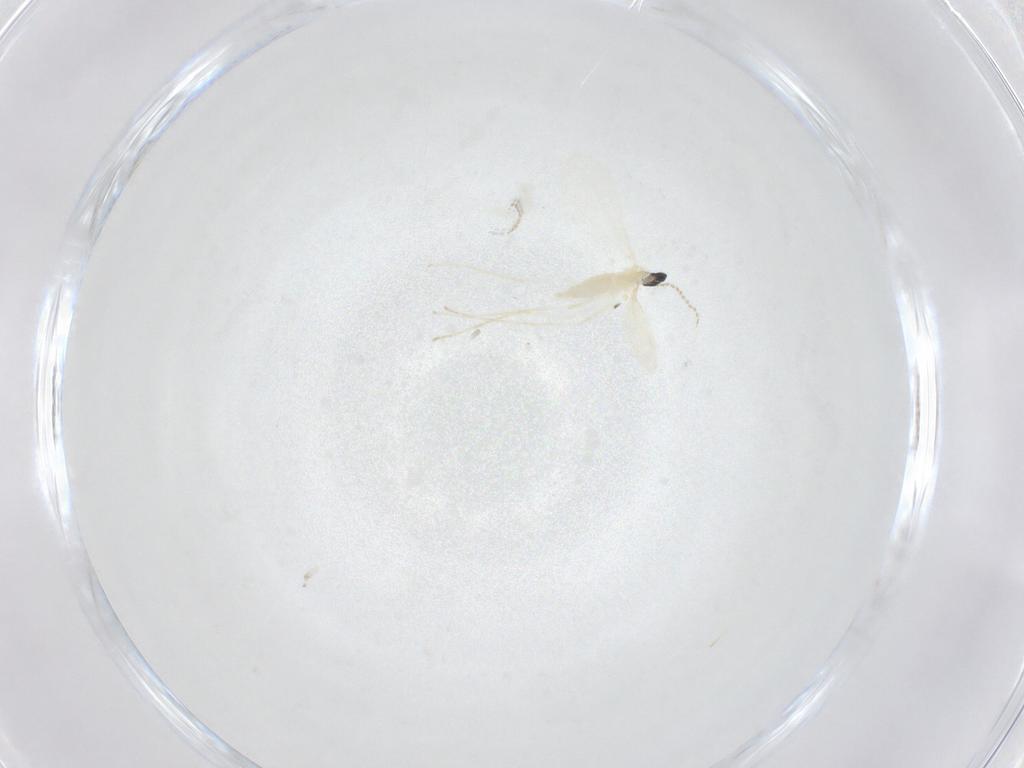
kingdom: Animalia
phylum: Arthropoda
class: Insecta
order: Diptera
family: Cecidomyiidae
